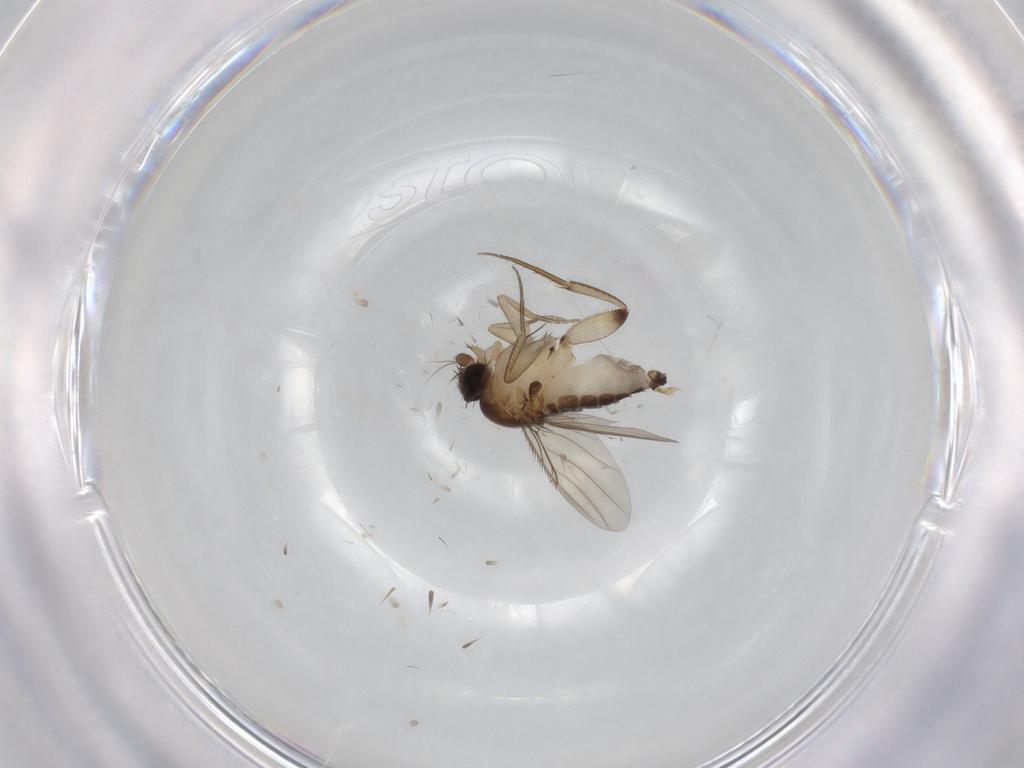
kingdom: Animalia
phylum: Arthropoda
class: Insecta
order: Diptera
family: Phoridae
